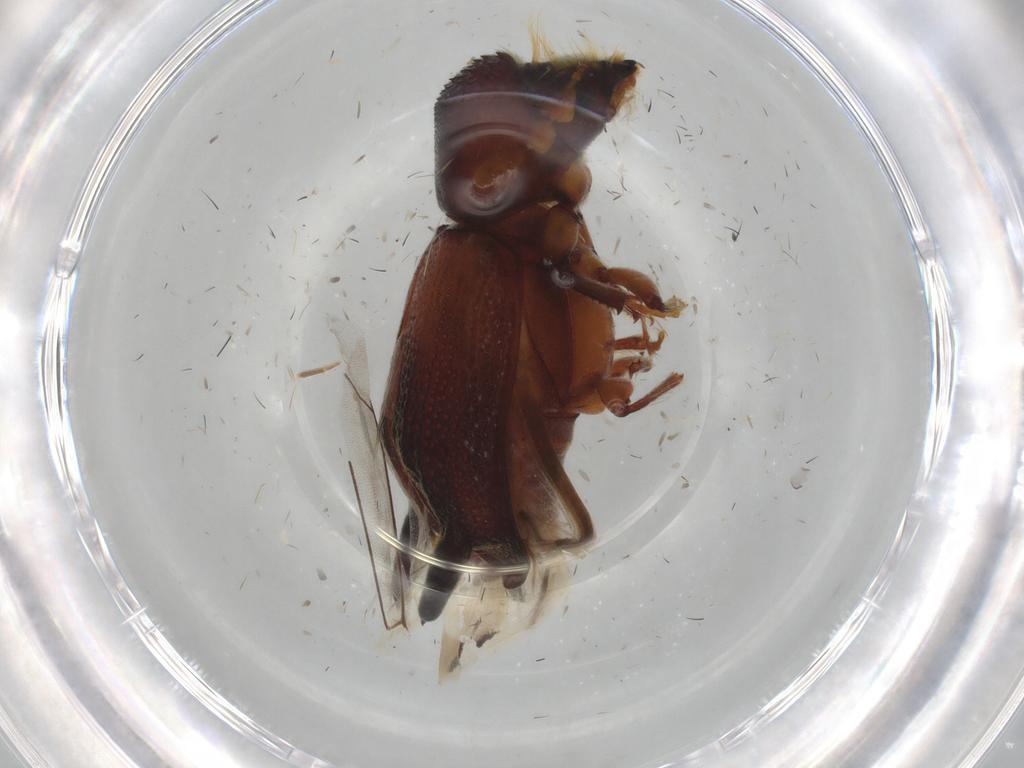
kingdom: Animalia
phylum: Arthropoda
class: Insecta
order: Coleoptera
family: Bostrichidae
